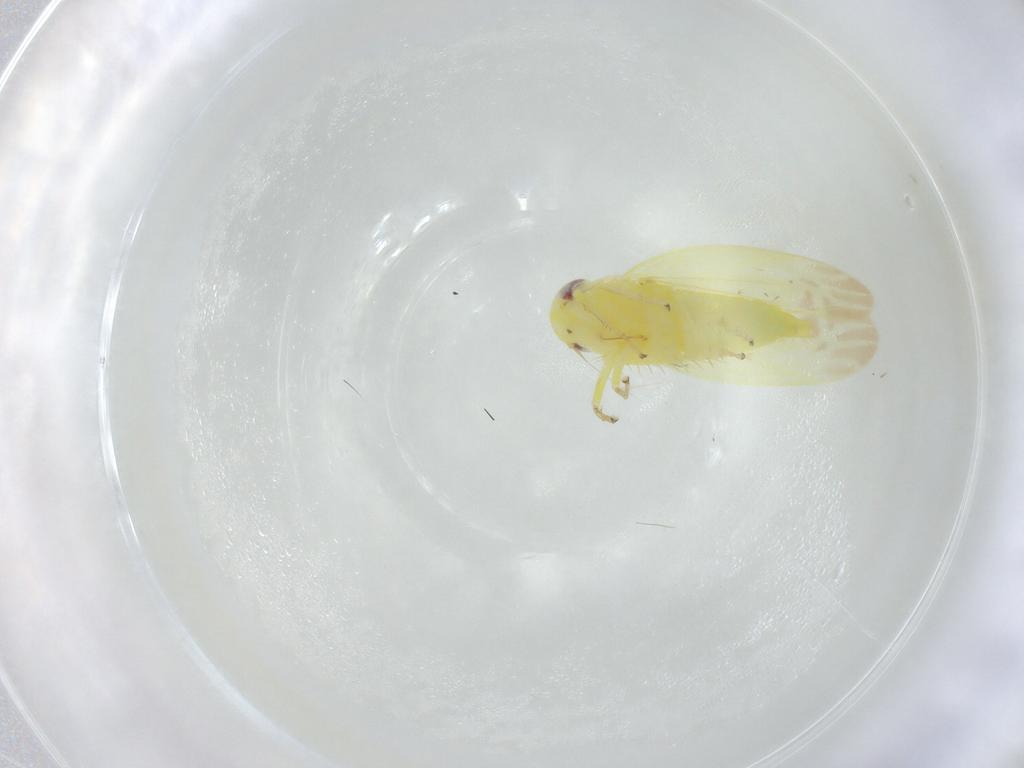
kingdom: Animalia
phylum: Arthropoda
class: Insecta
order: Hemiptera
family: Cicadellidae
